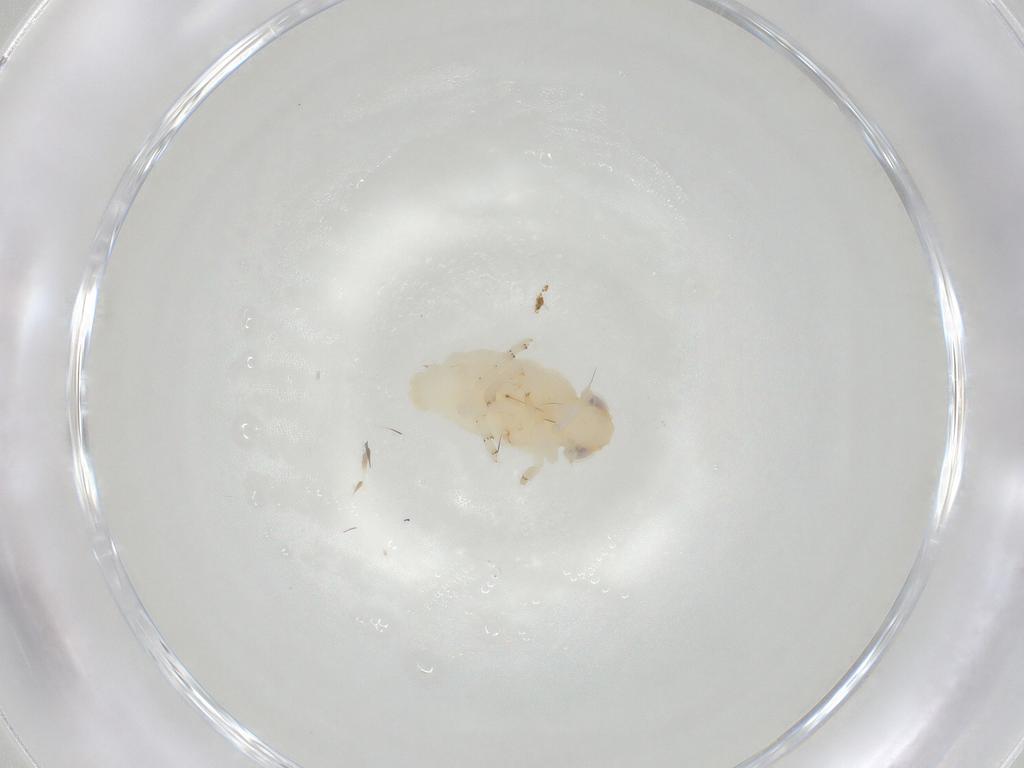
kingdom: Animalia
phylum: Arthropoda
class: Insecta
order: Hemiptera
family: Nogodinidae
